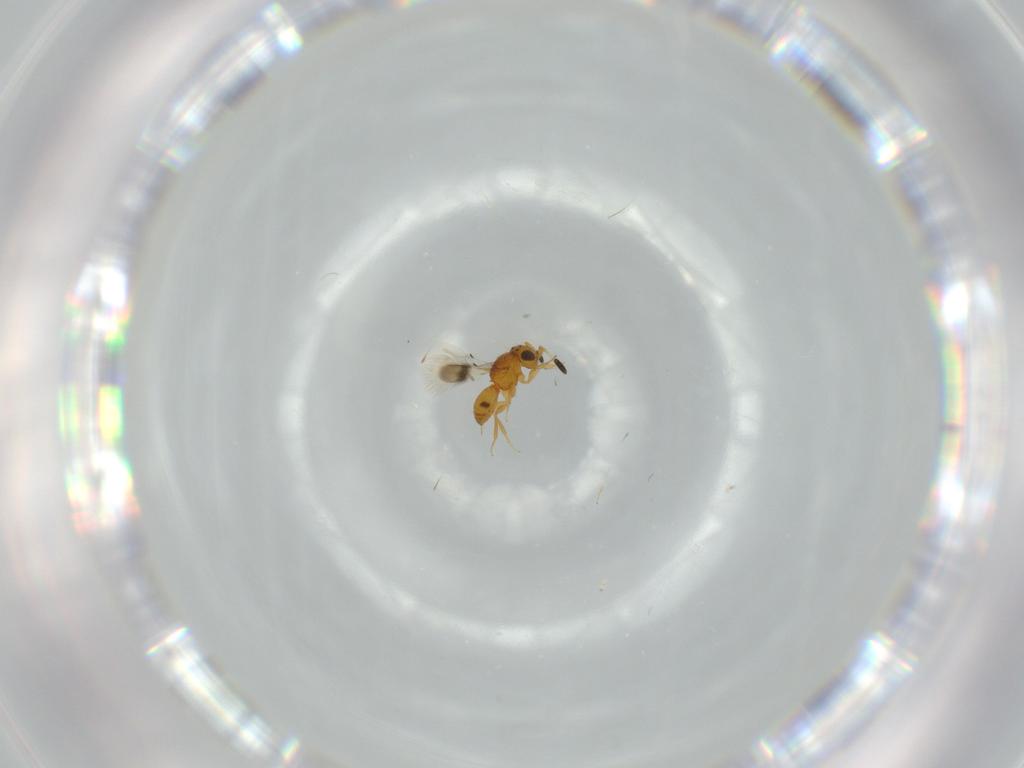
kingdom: Animalia
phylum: Arthropoda
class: Insecta
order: Hymenoptera
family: Scelionidae
